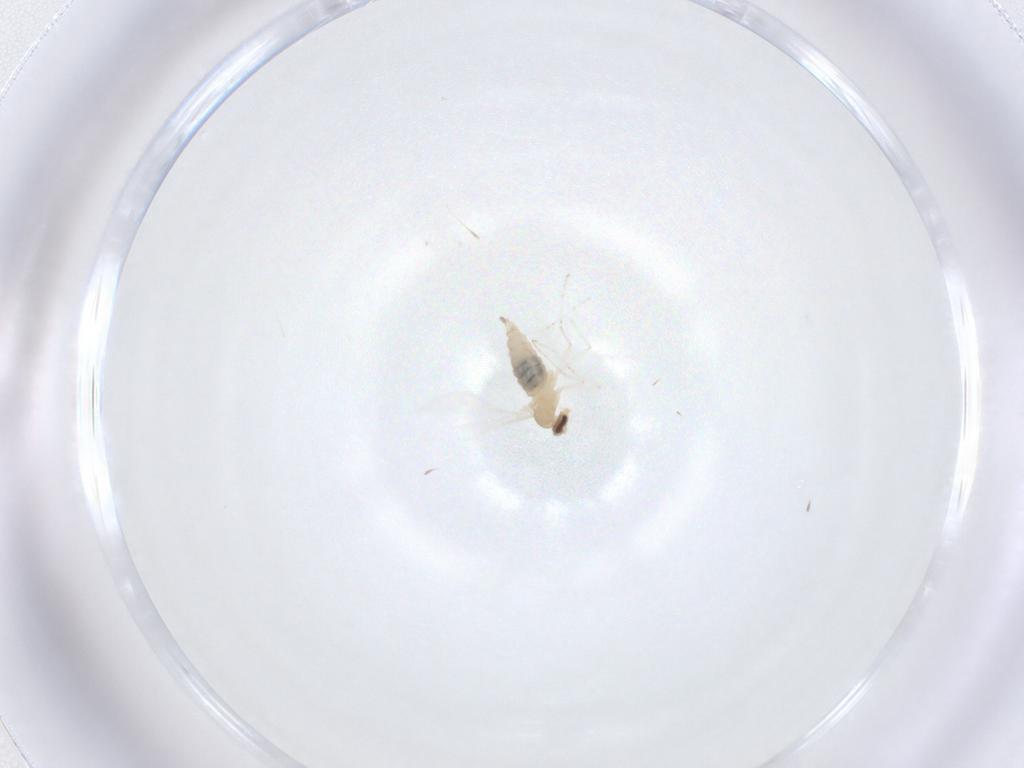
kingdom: Animalia
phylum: Arthropoda
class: Insecta
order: Diptera
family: Cecidomyiidae
